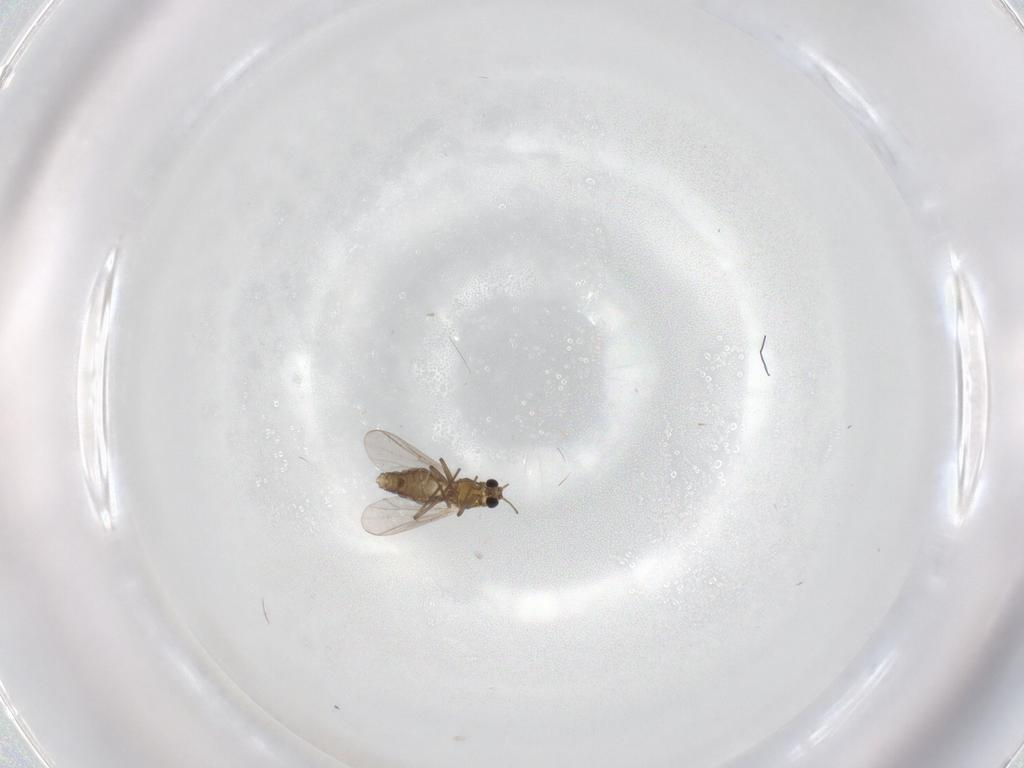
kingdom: Animalia
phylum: Arthropoda
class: Insecta
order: Diptera
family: Chironomidae
